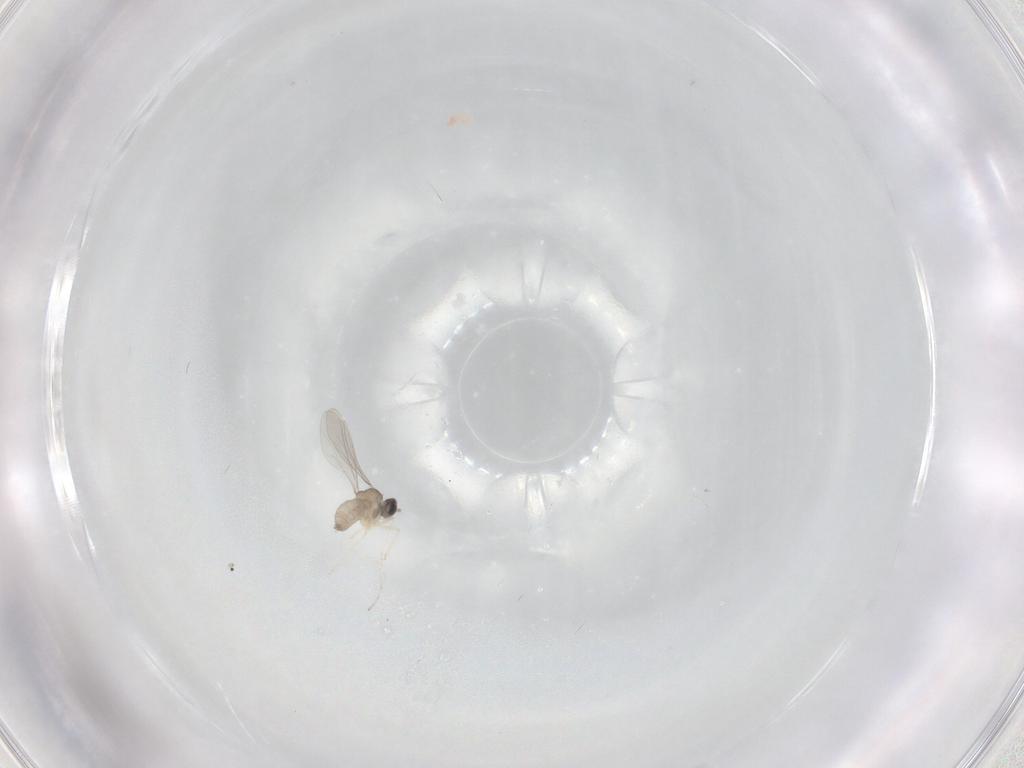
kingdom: Animalia
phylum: Arthropoda
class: Insecta
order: Diptera
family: Cecidomyiidae
